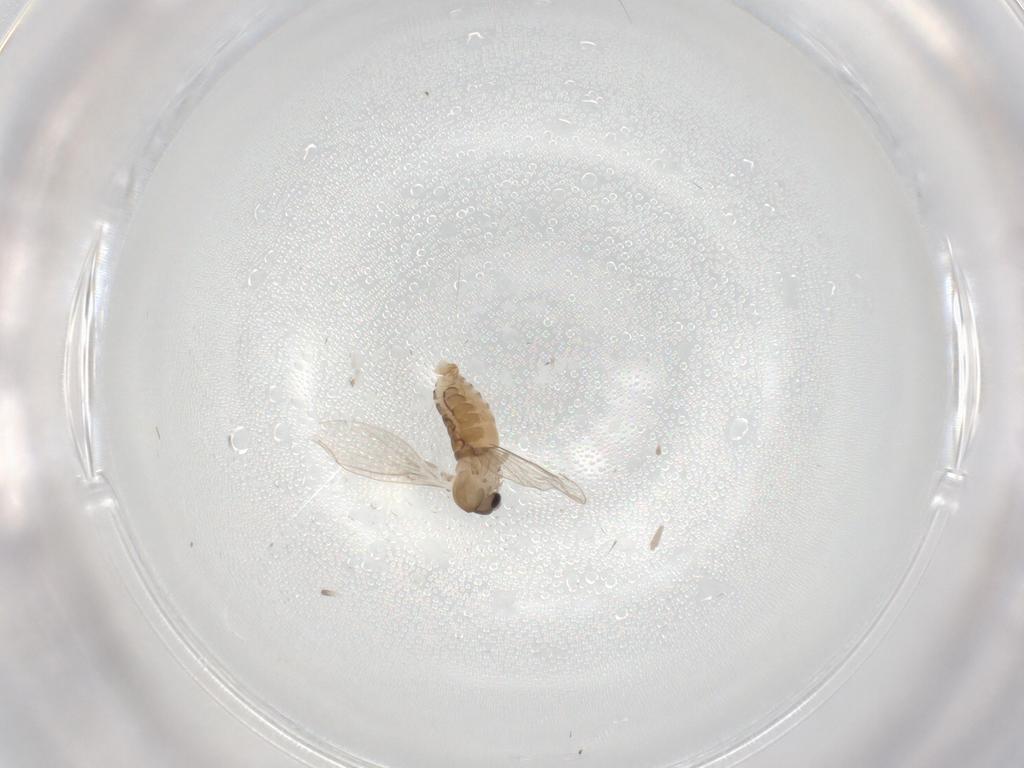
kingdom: Animalia
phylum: Arthropoda
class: Insecta
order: Diptera
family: Psychodidae
